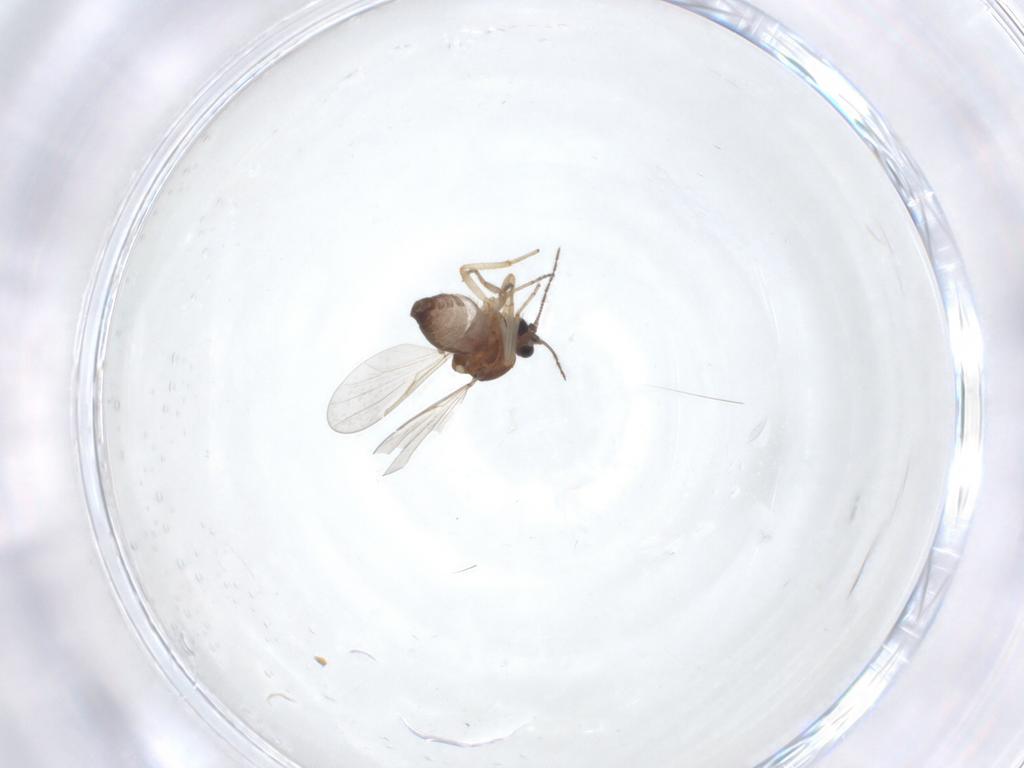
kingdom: Animalia
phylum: Arthropoda
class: Insecta
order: Diptera
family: Ceratopogonidae
